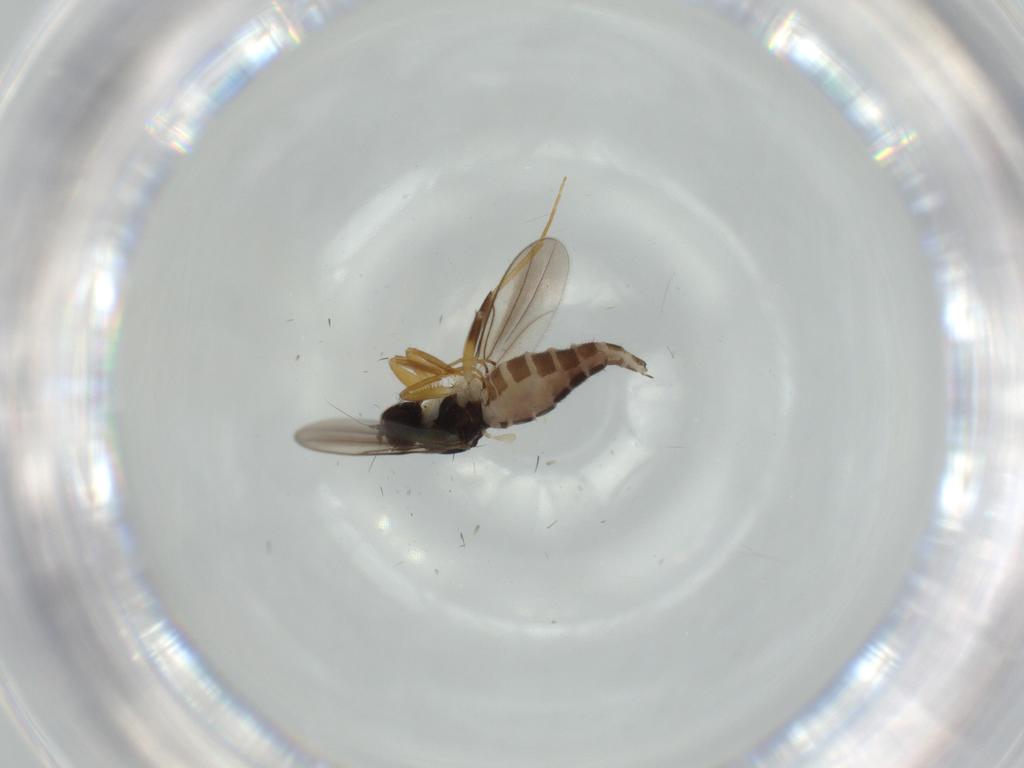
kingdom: Animalia
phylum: Arthropoda
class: Insecta
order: Diptera
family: Hybotidae
